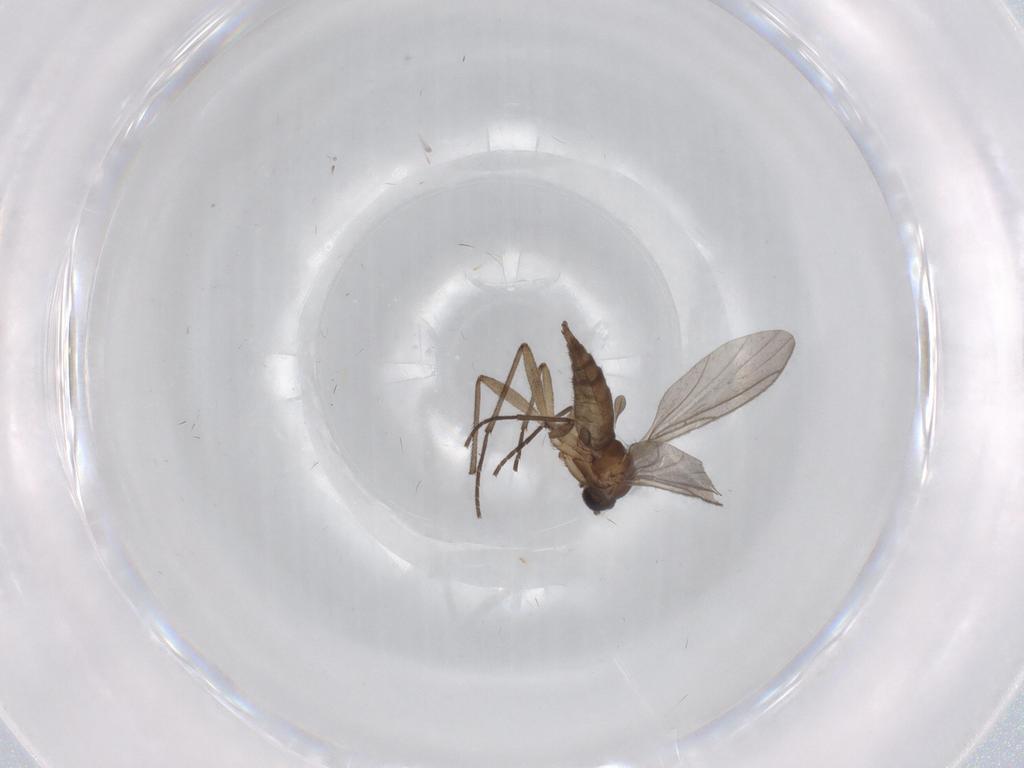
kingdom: Animalia
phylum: Arthropoda
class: Insecta
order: Diptera
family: Sciaridae
